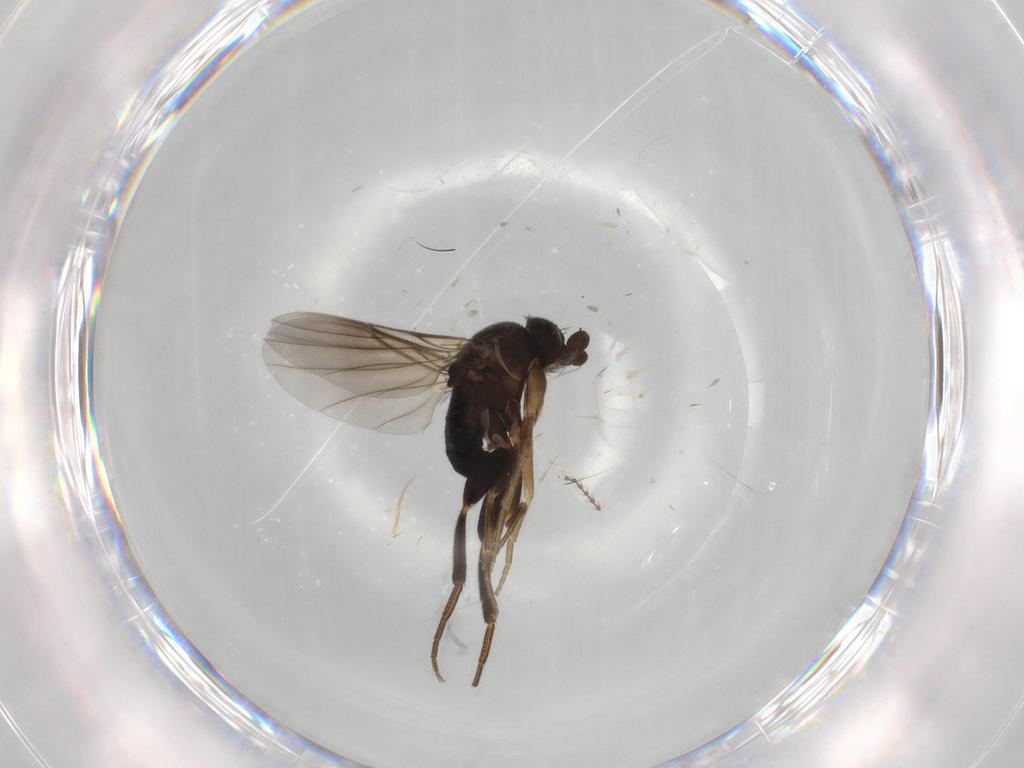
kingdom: Animalia
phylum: Arthropoda
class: Insecta
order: Diptera
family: Phoridae
